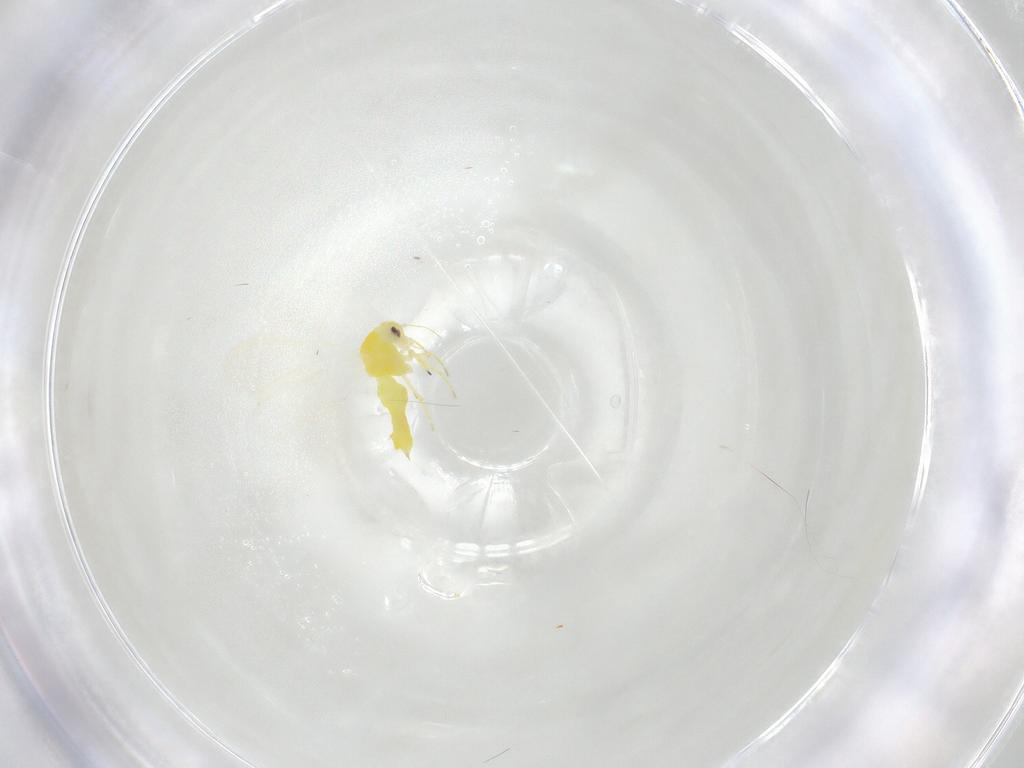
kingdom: Animalia
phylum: Arthropoda
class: Insecta
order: Hemiptera
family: Aleyrodidae
